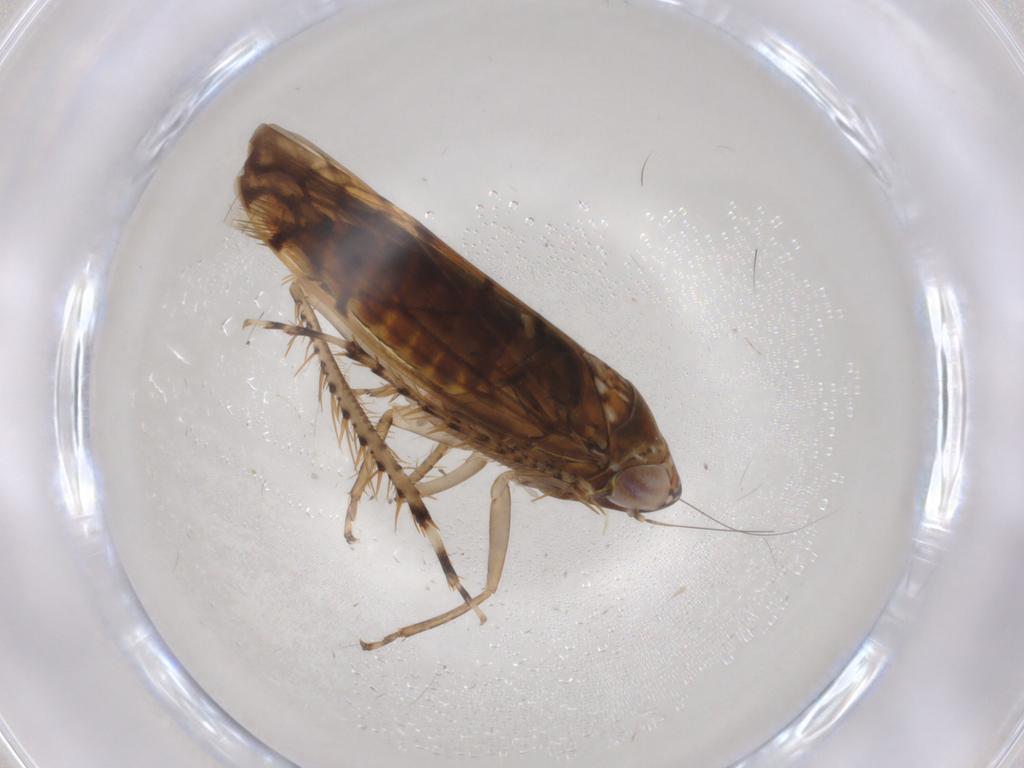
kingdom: Animalia
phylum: Arthropoda
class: Insecta
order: Hemiptera
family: Cicadellidae
